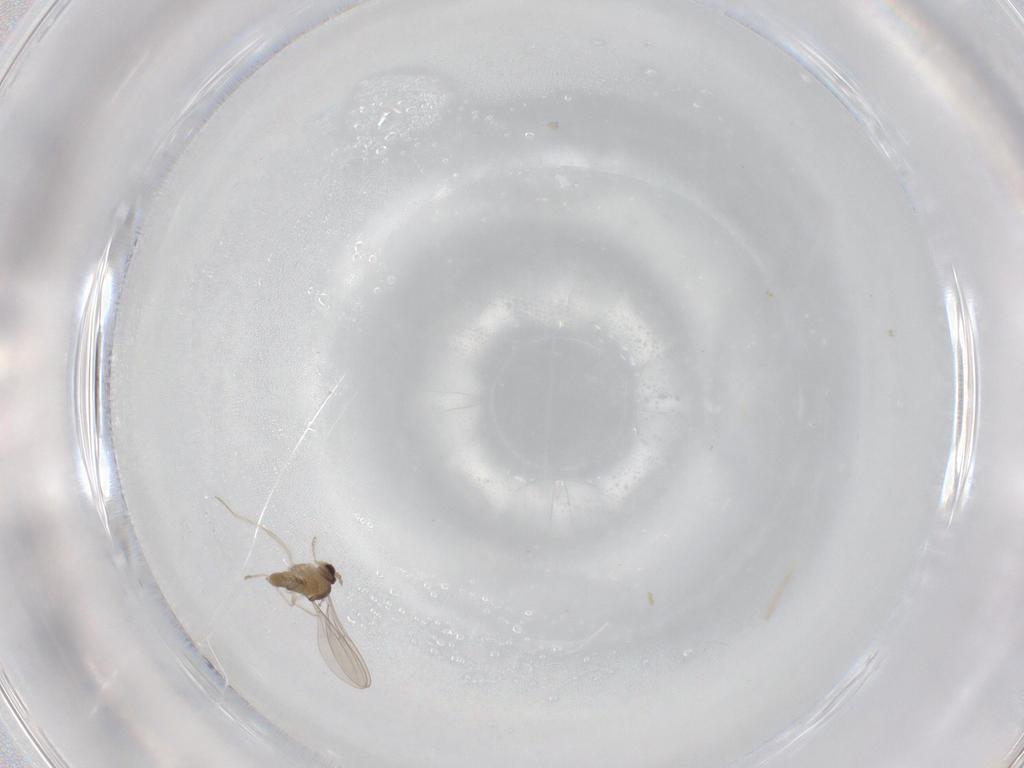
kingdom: Animalia
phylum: Arthropoda
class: Insecta
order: Diptera
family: Cecidomyiidae
